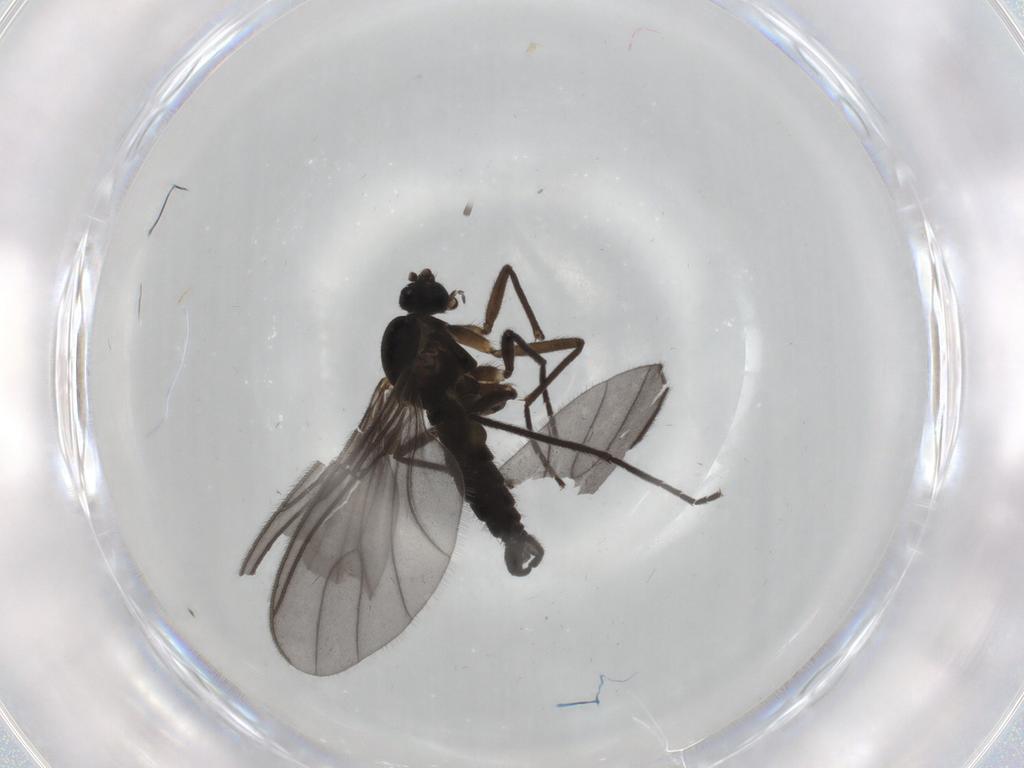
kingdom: Animalia
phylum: Arthropoda
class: Insecta
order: Diptera
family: Sciaridae
